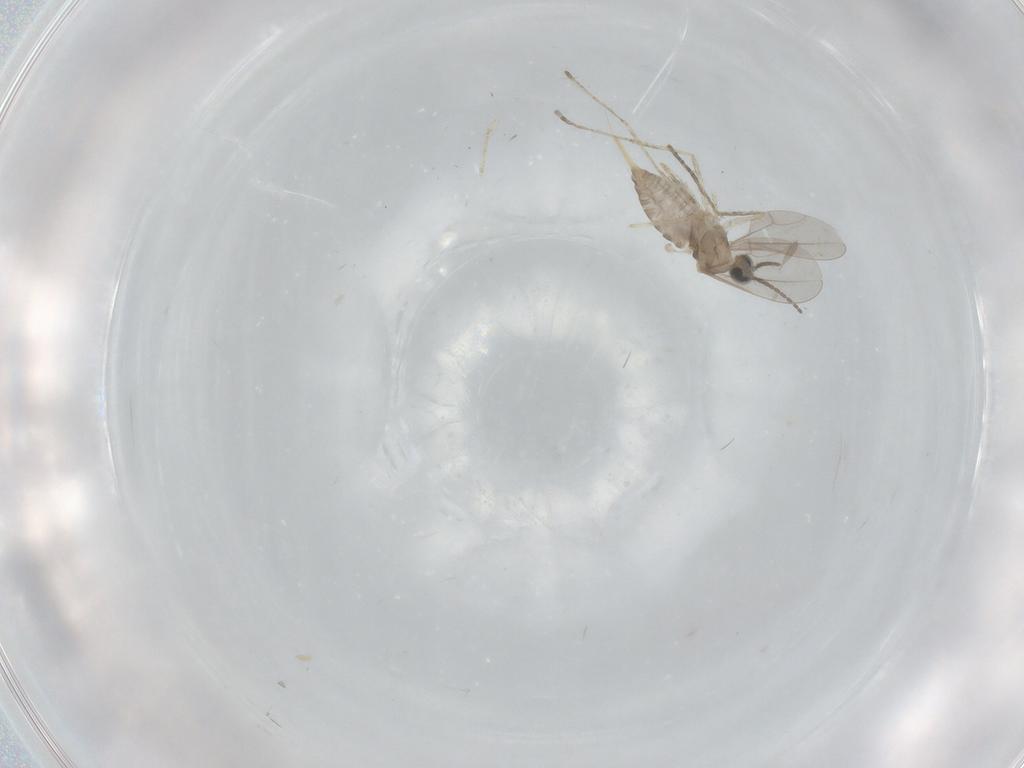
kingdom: Animalia
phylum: Arthropoda
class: Insecta
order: Diptera
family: Cecidomyiidae
